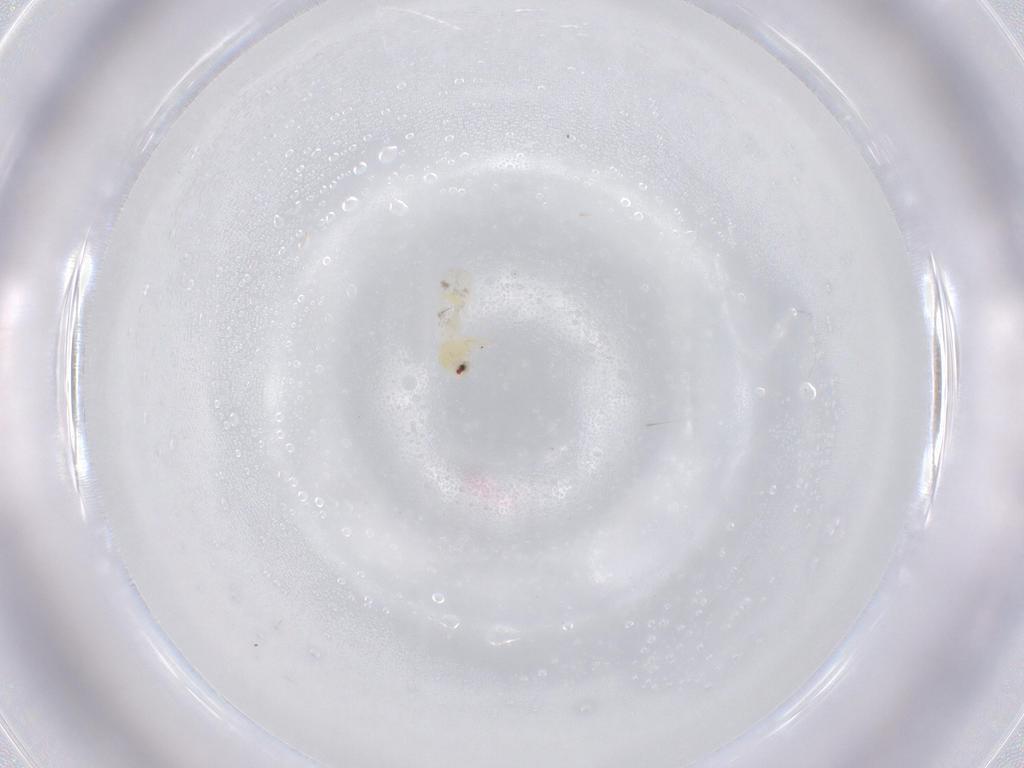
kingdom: Animalia
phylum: Arthropoda
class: Insecta
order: Hemiptera
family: Aleyrodidae
